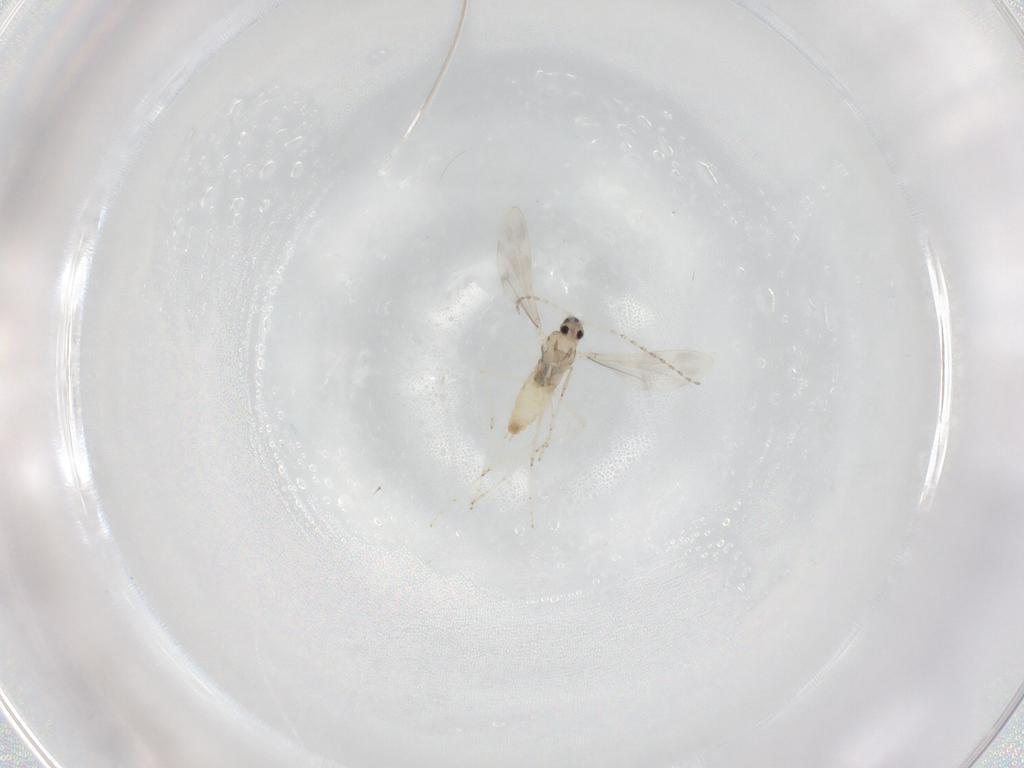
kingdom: Animalia
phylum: Arthropoda
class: Insecta
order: Diptera
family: Cecidomyiidae
